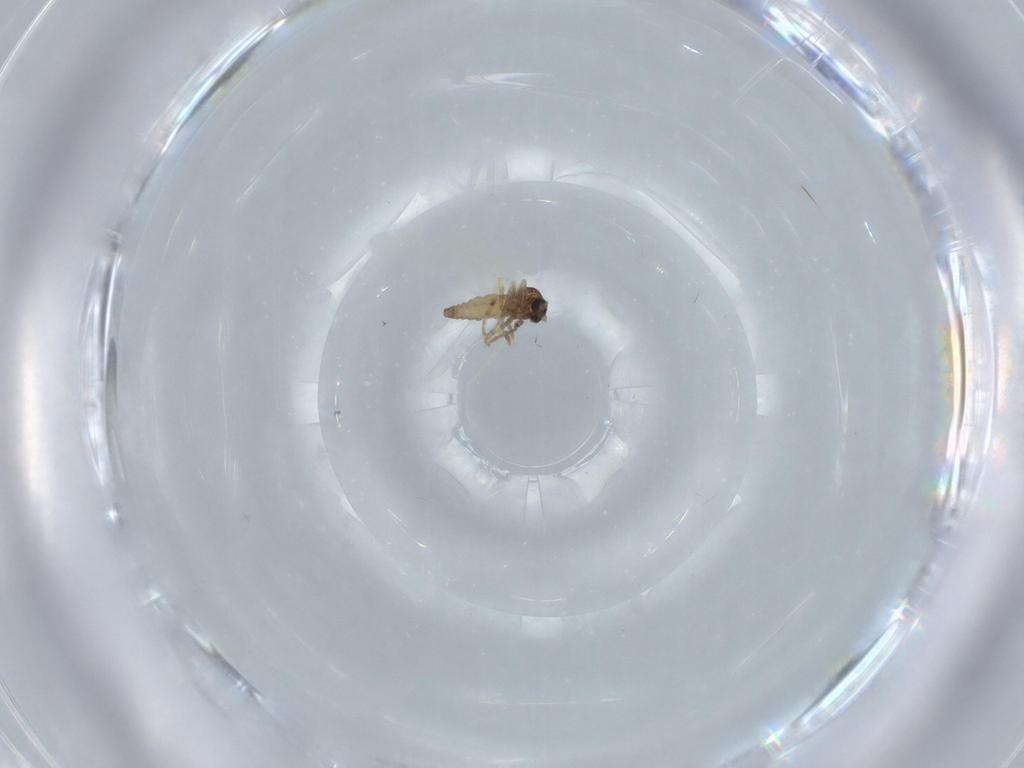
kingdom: Animalia
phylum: Arthropoda
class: Insecta
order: Diptera
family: Ceratopogonidae
